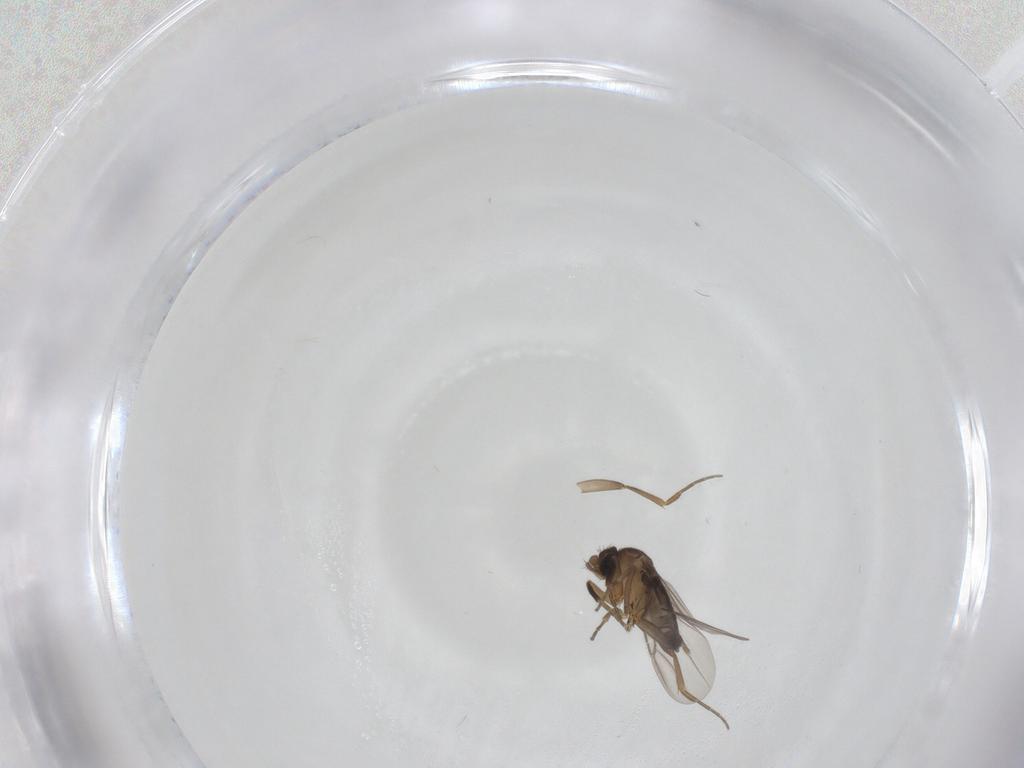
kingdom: Animalia
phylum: Arthropoda
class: Insecta
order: Diptera
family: Phoridae
